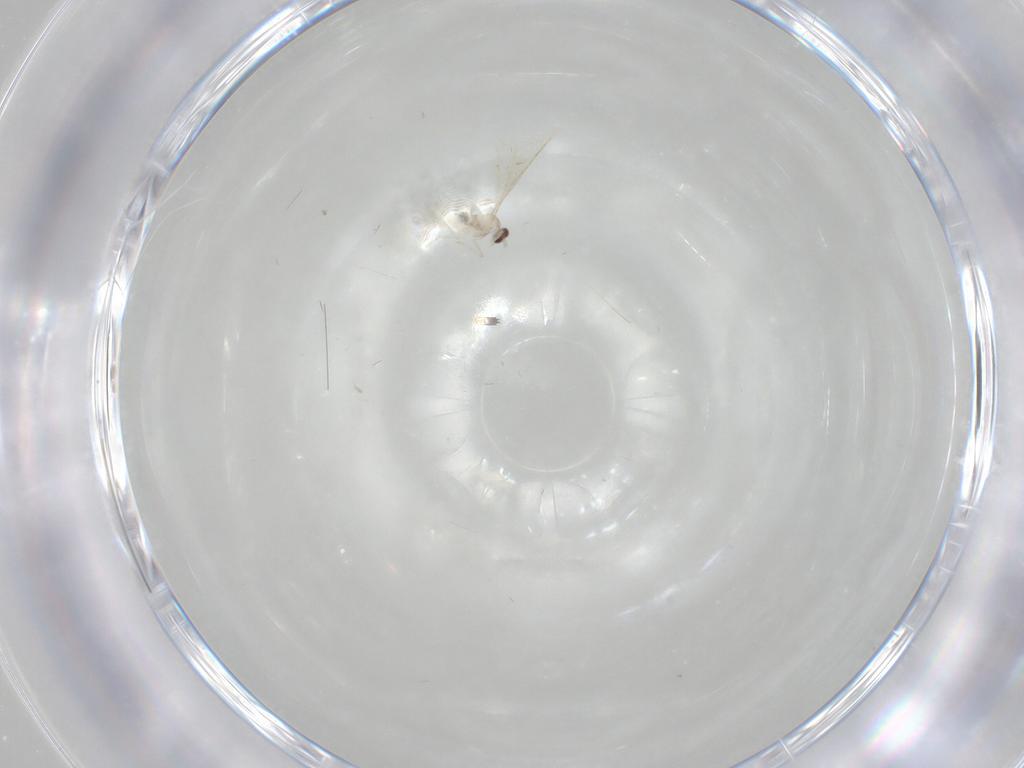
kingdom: Animalia
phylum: Arthropoda
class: Insecta
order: Diptera
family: Cecidomyiidae
